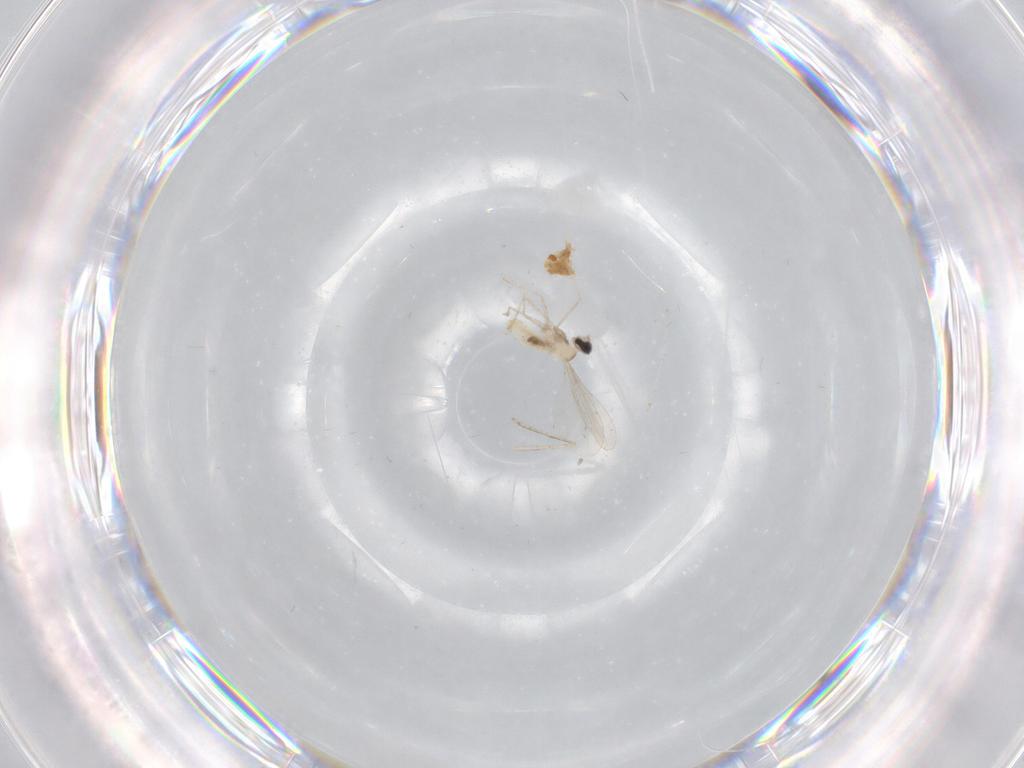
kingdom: Animalia
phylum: Arthropoda
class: Insecta
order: Diptera
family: Cecidomyiidae
